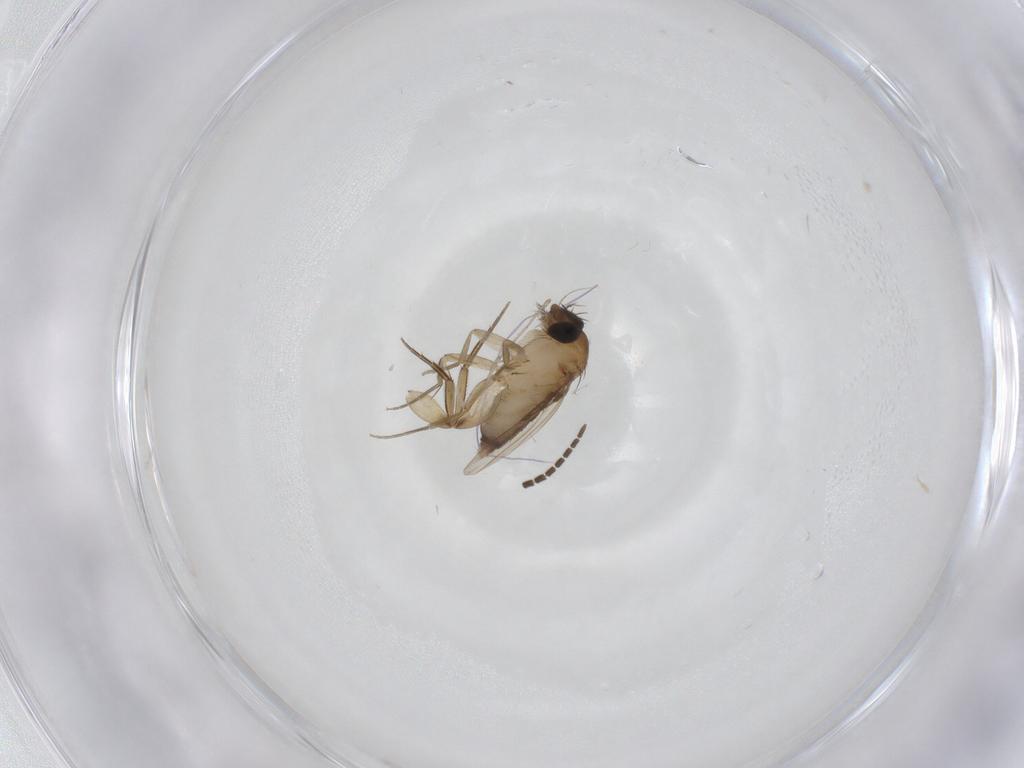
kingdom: Animalia
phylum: Arthropoda
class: Insecta
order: Diptera
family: Phoridae
